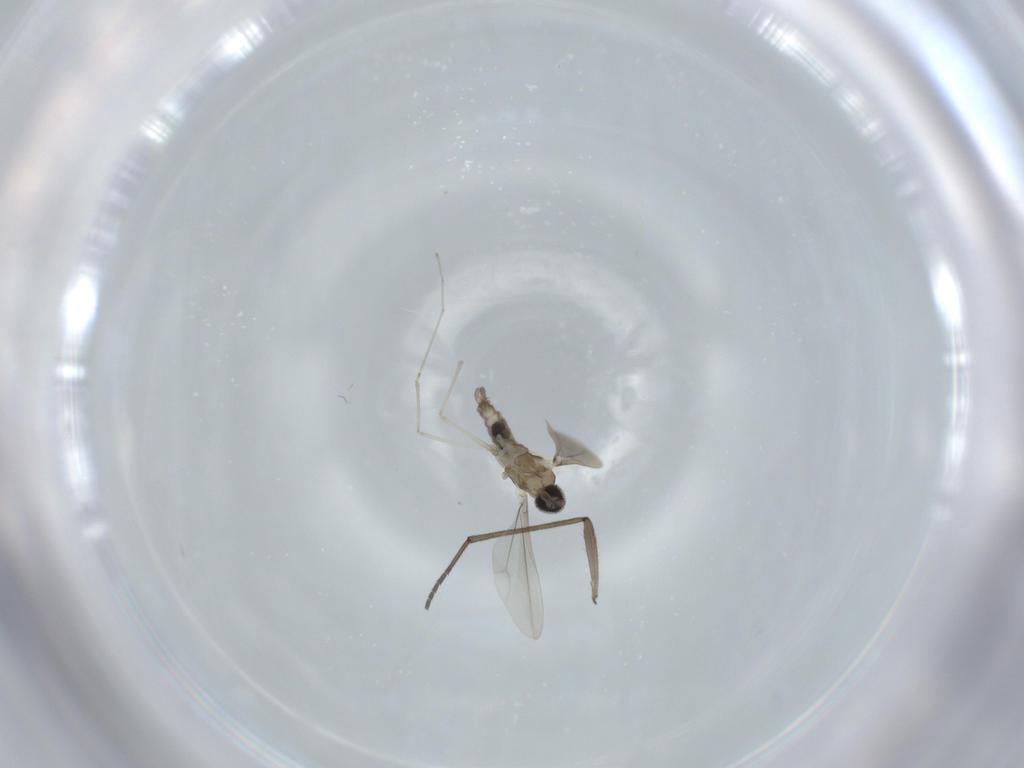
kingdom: Animalia
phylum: Arthropoda
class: Insecta
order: Diptera
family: Cecidomyiidae
